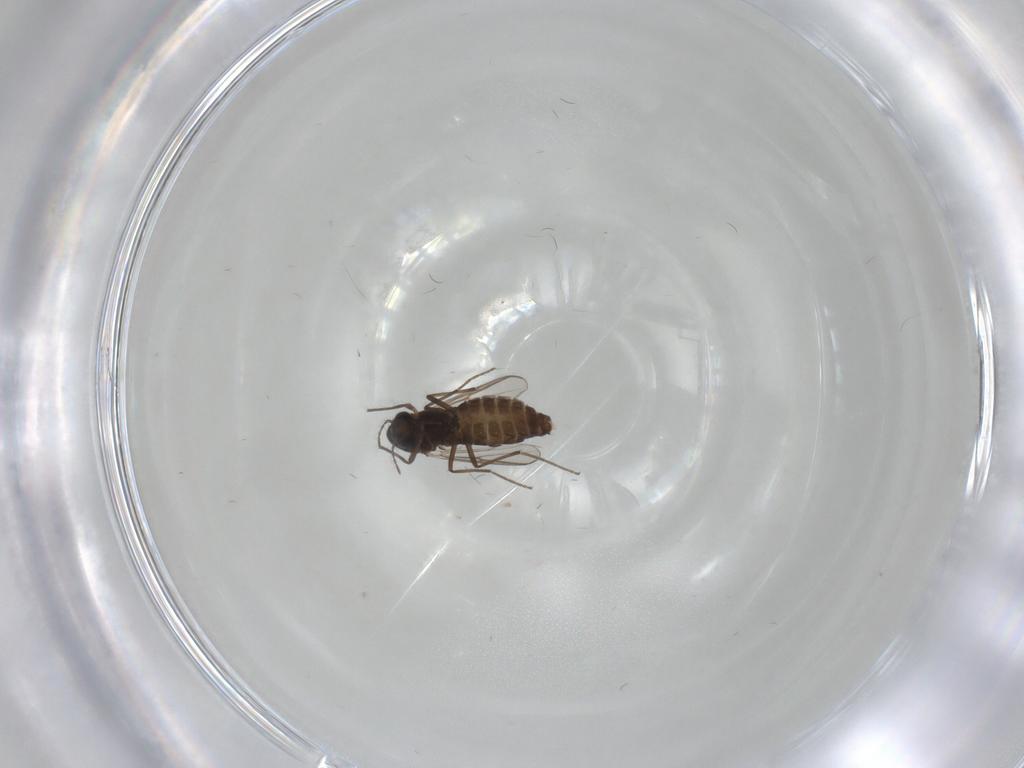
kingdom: Animalia
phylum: Arthropoda
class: Insecta
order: Diptera
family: Chironomidae
